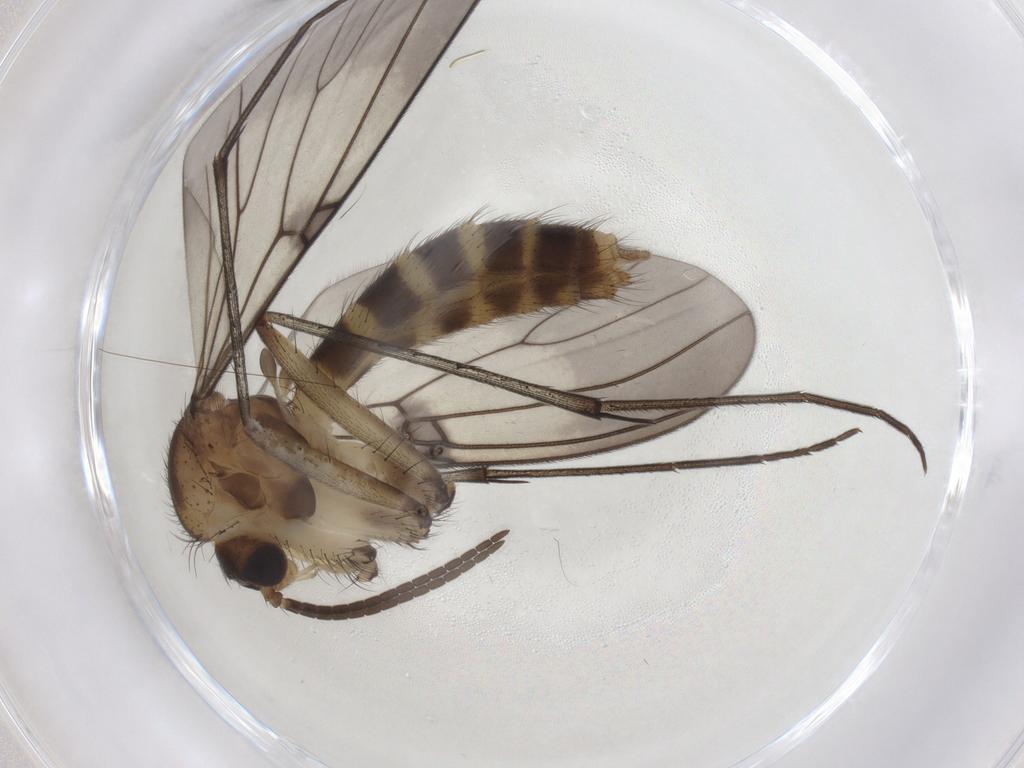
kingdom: Animalia
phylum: Arthropoda
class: Insecta
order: Diptera
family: Mycetophilidae
